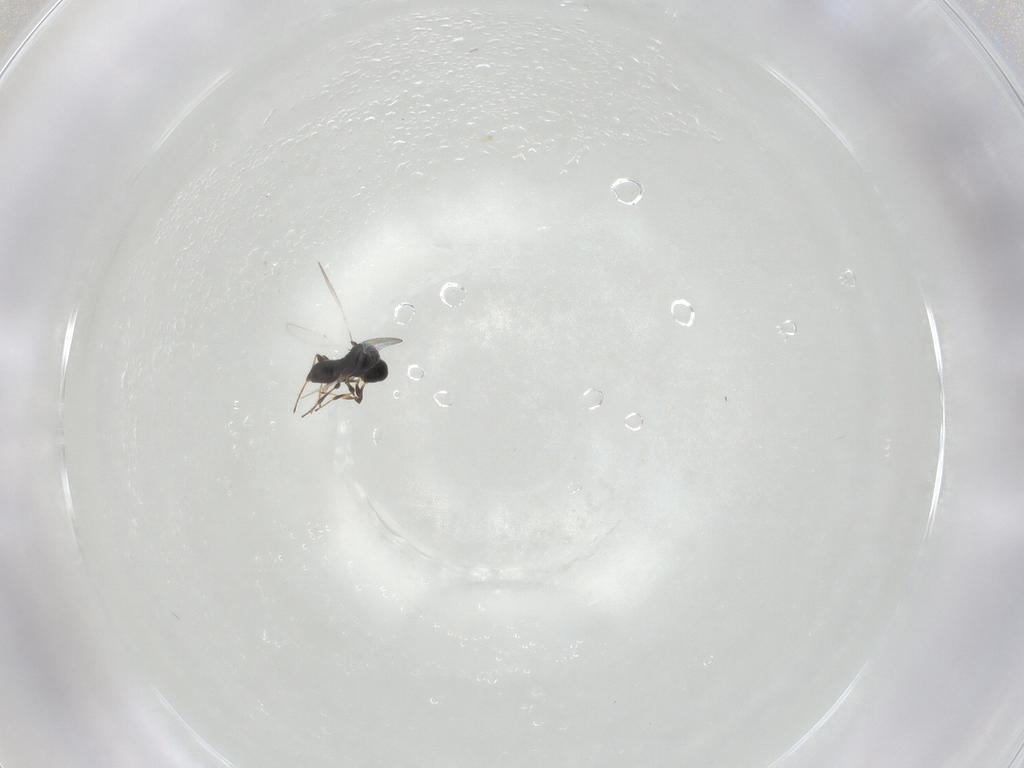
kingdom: Animalia
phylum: Arthropoda
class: Insecta
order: Hymenoptera
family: Platygastridae
